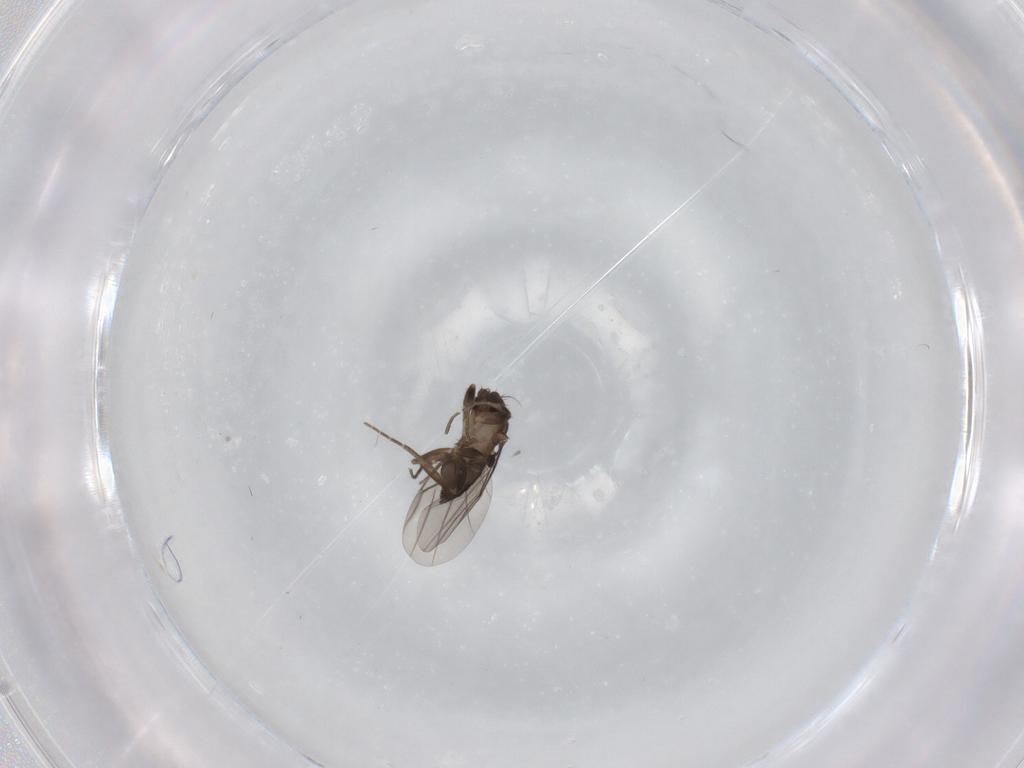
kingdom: Animalia
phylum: Arthropoda
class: Insecta
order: Diptera
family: Phoridae
